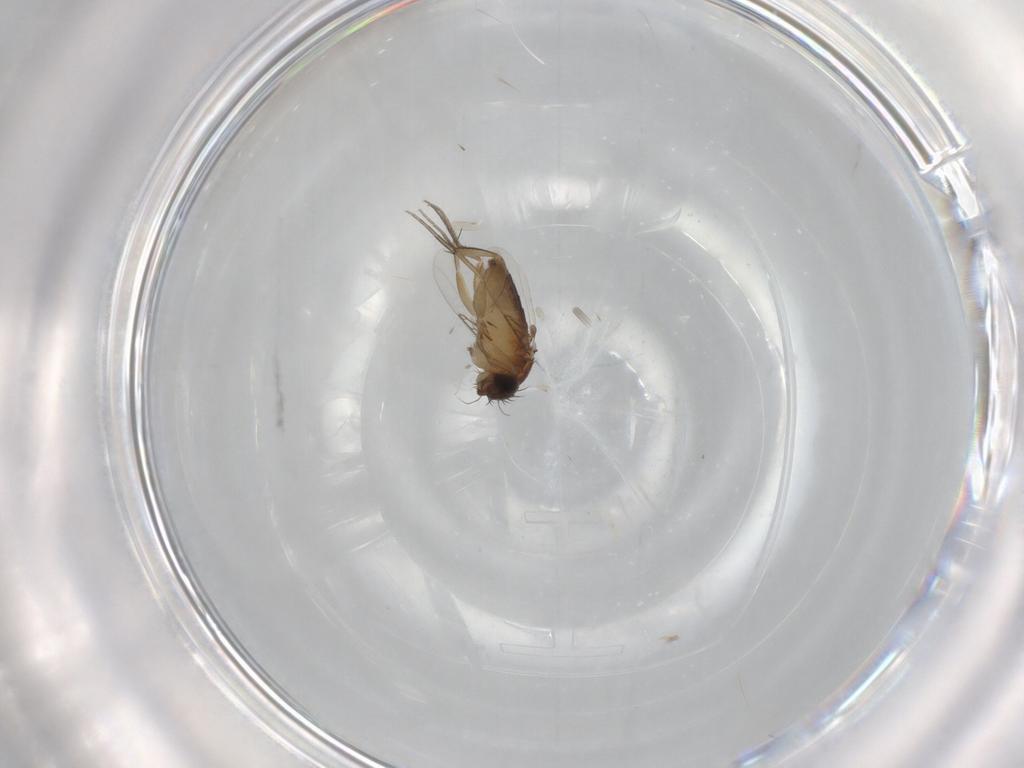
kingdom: Animalia
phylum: Arthropoda
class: Insecta
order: Diptera
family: Phoridae
